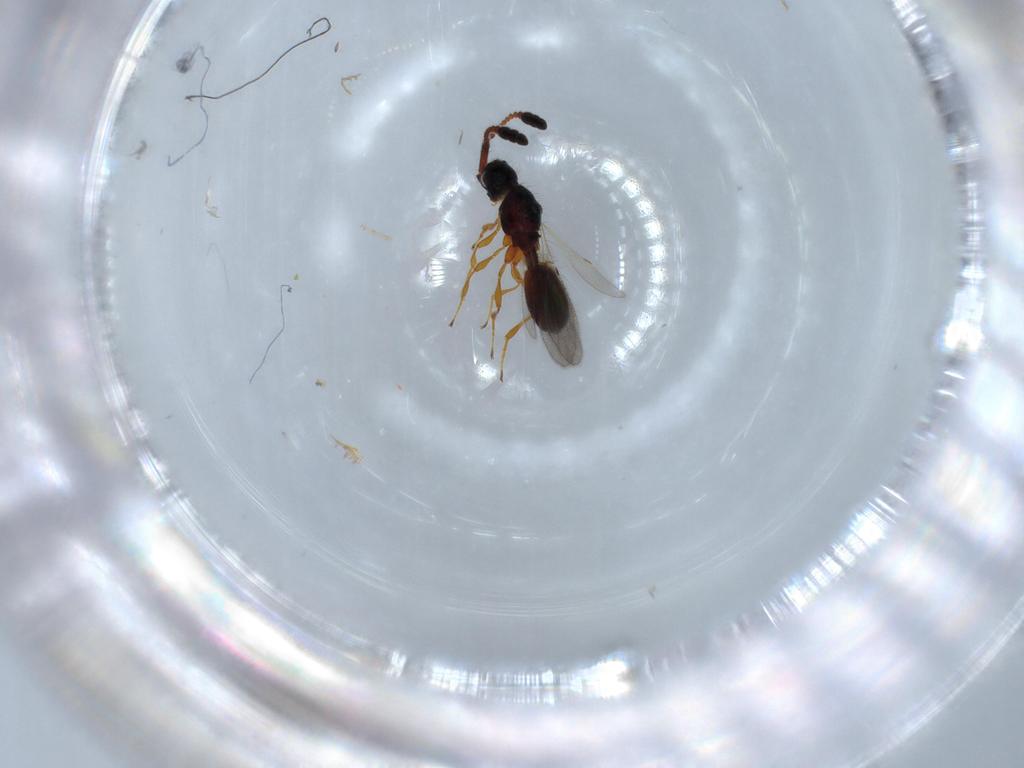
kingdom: Animalia
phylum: Arthropoda
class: Insecta
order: Hymenoptera
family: Diapriidae
